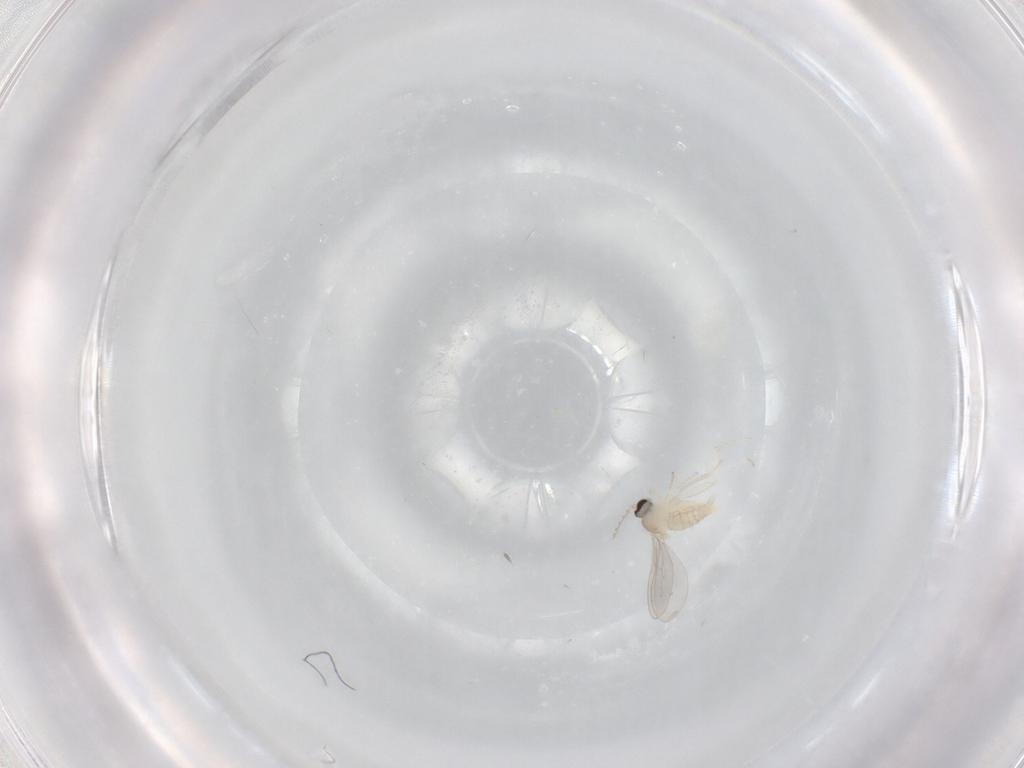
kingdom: Animalia
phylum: Arthropoda
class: Insecta
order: Diptera
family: Cecidomyiidae
